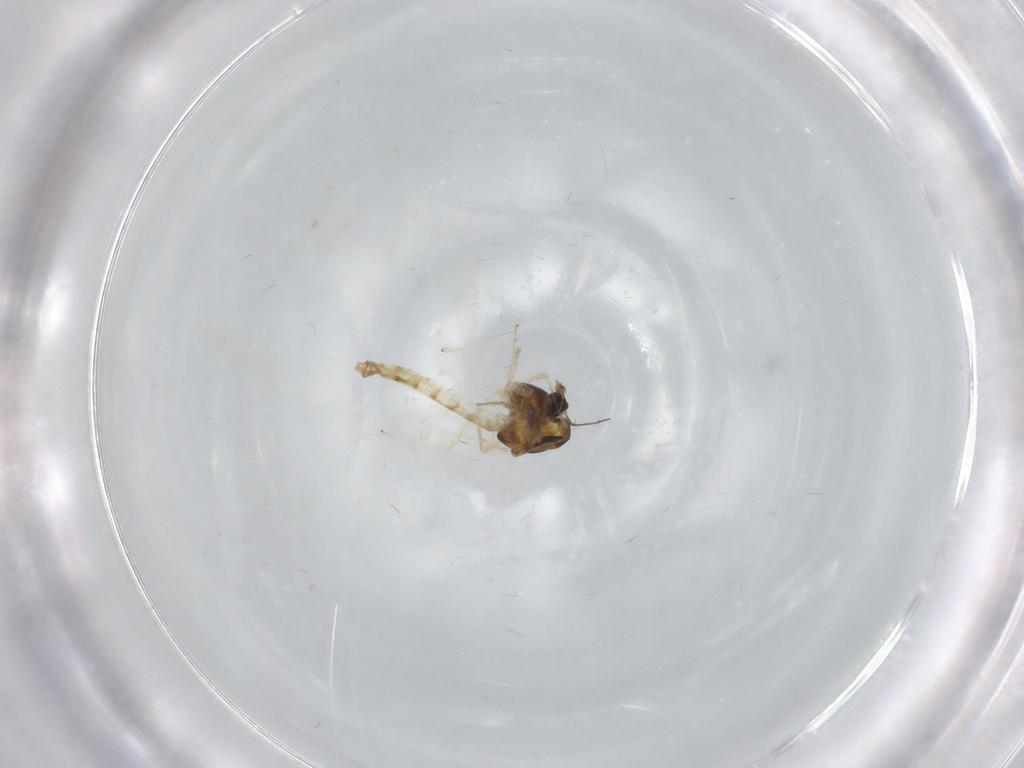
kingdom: Animalia
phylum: Arthropoda
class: Insecta
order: Diptera
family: Chironomidae
